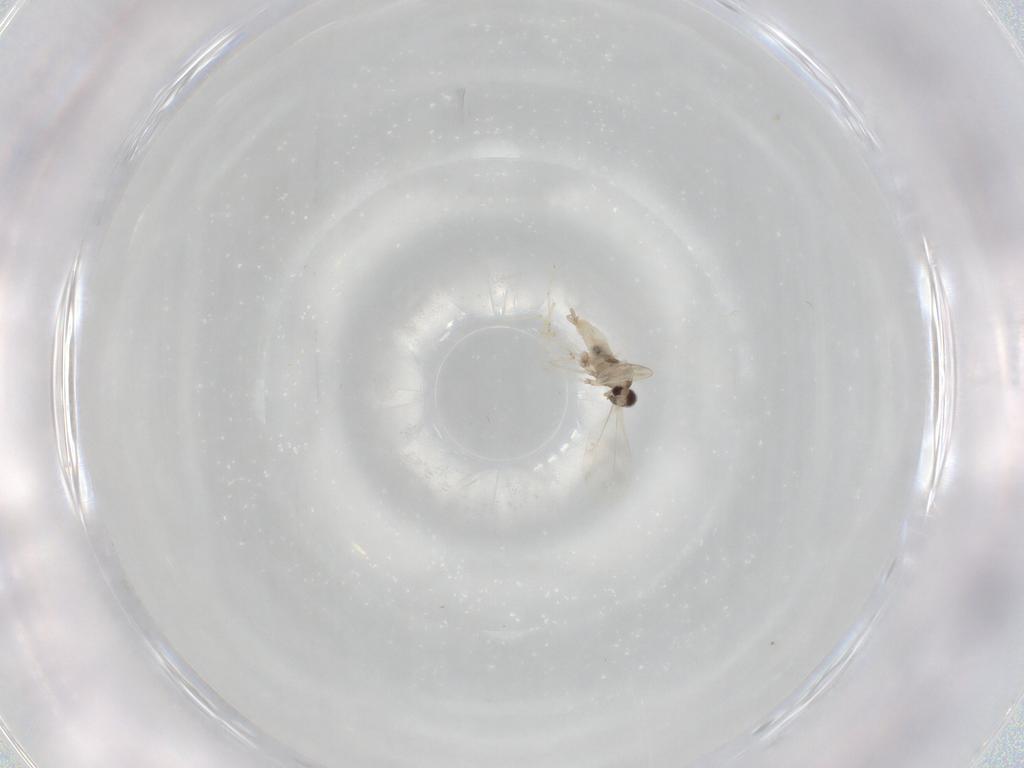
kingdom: Animalia
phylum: Arthropoda
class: Insecta
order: Diptera
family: Cecidomyiidae
